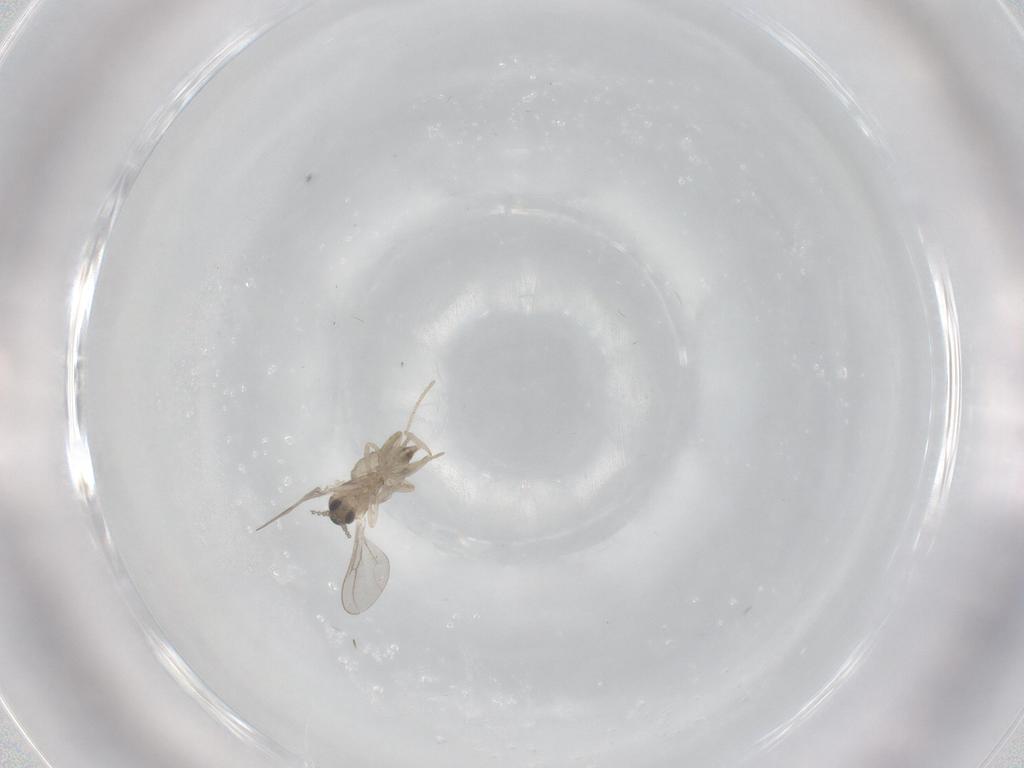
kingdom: Animalia
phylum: Arthropoda
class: Insecta
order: Diptera
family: Cecidomyiidae
